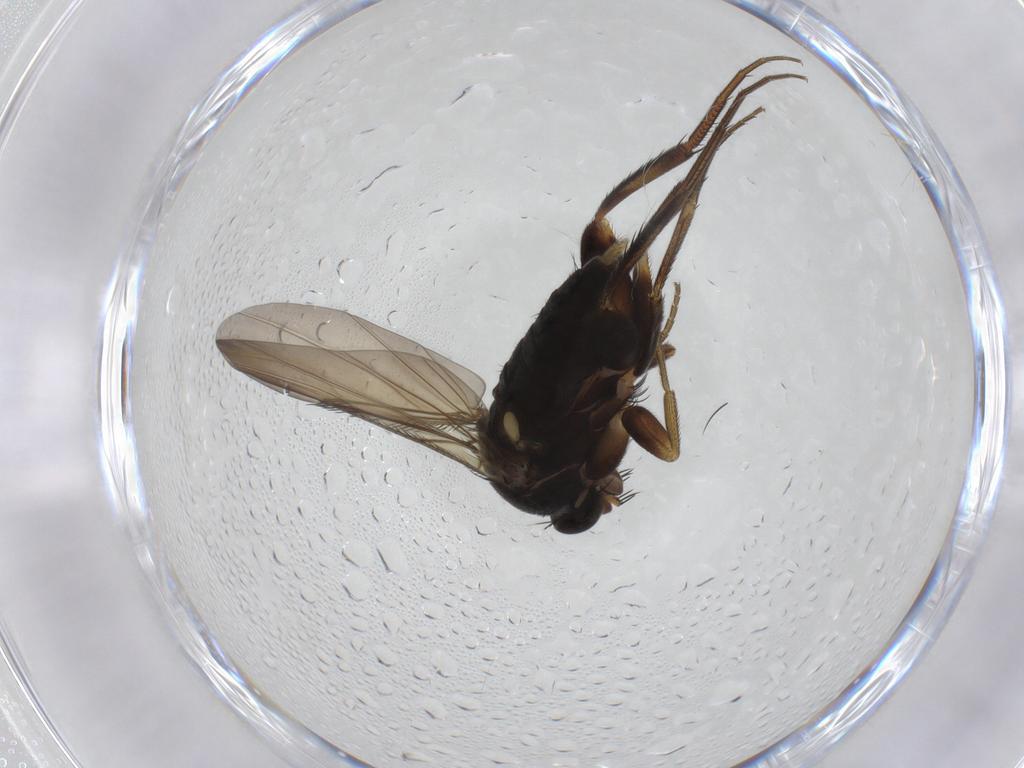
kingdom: Animalia
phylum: Arthropoda
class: Insecta
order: Diptera
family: Phoridae
